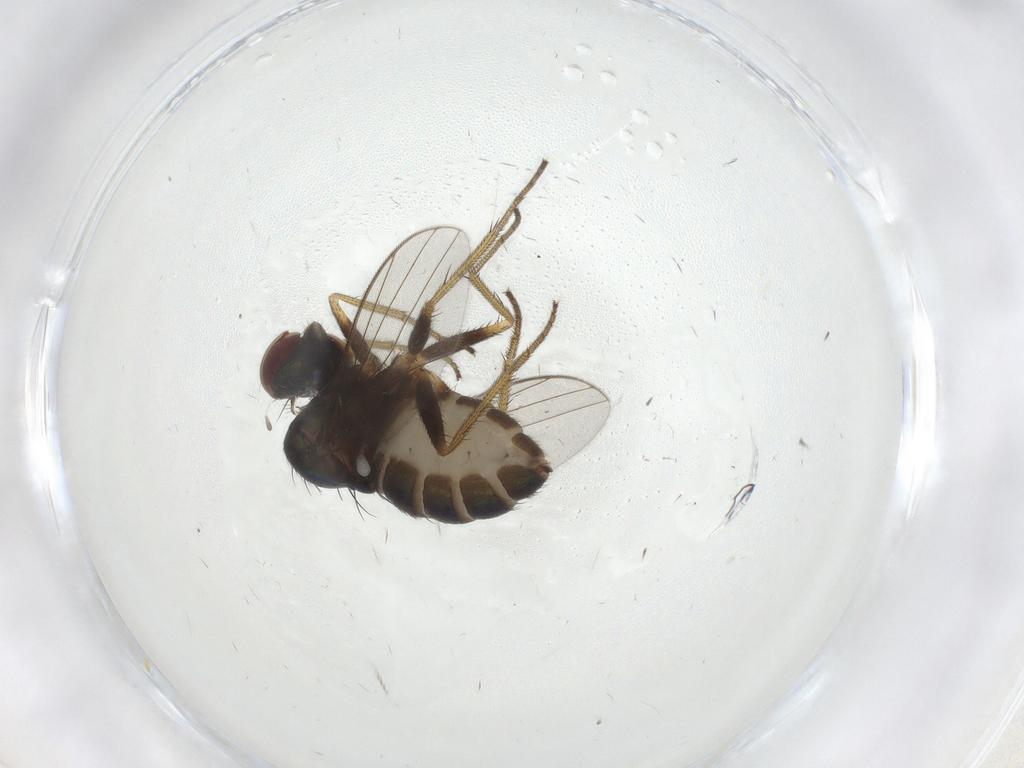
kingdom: Animalia
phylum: Arthropoda
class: Insecta
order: Diptera
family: Dolichopodidae
